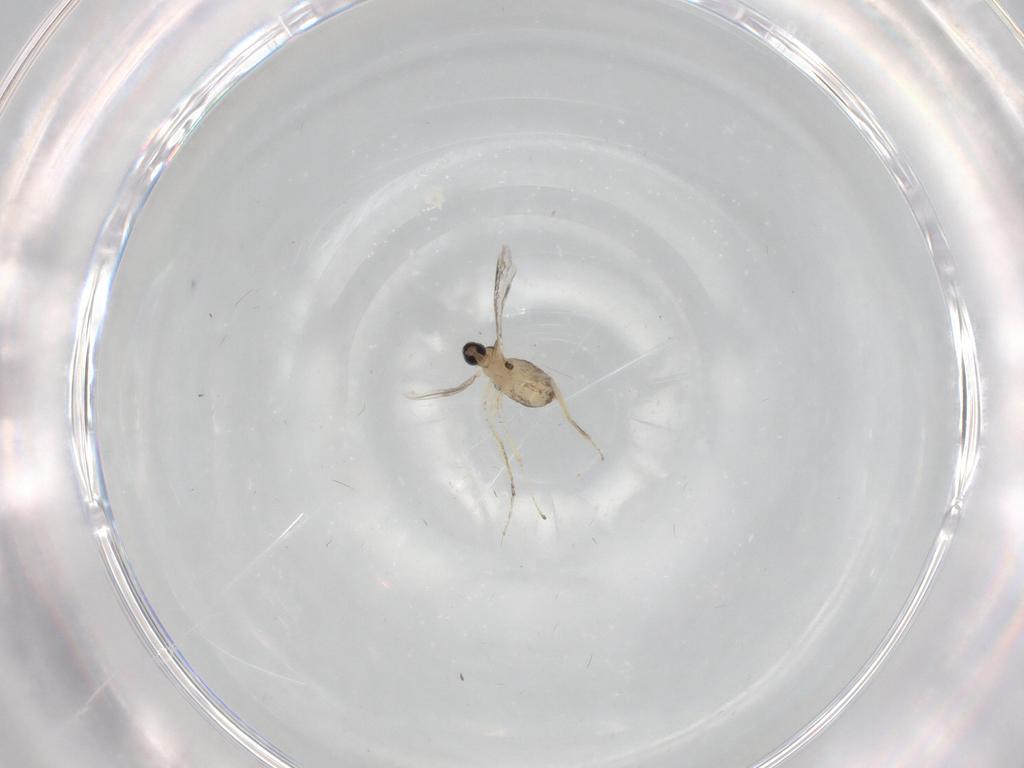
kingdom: Animalia
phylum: Arthropoda
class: Insecta
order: Diptera
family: Cecidomyiidae
